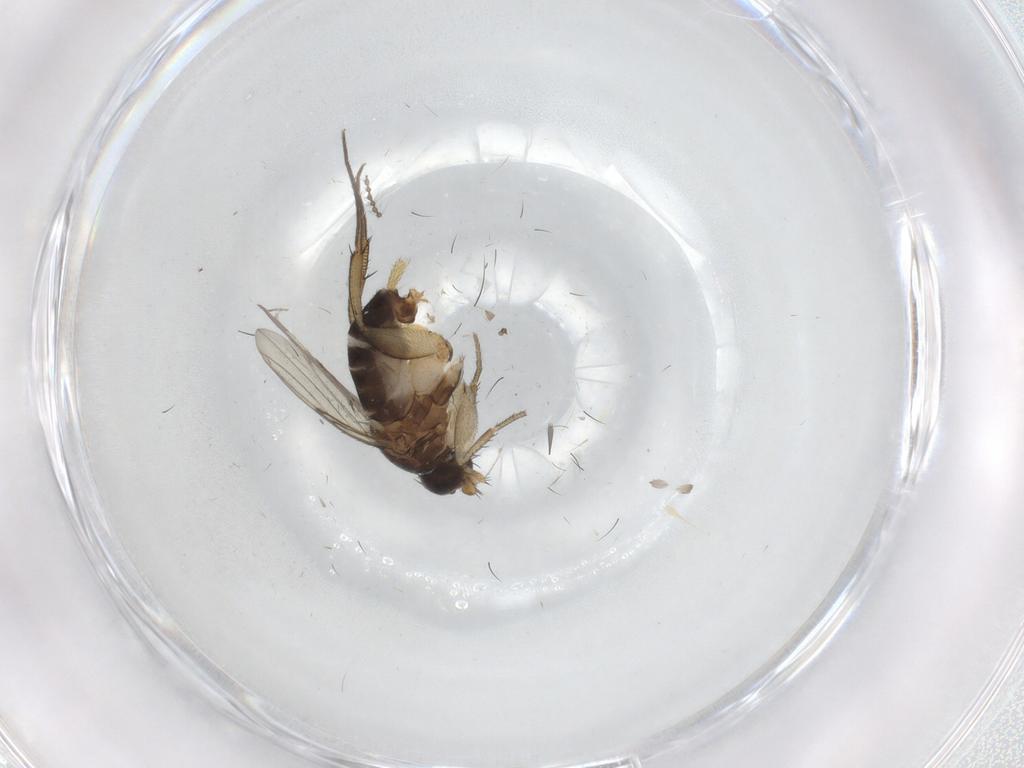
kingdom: Animalia
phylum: Arthropoda
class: Insecta
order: Diptera
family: Phoridae
